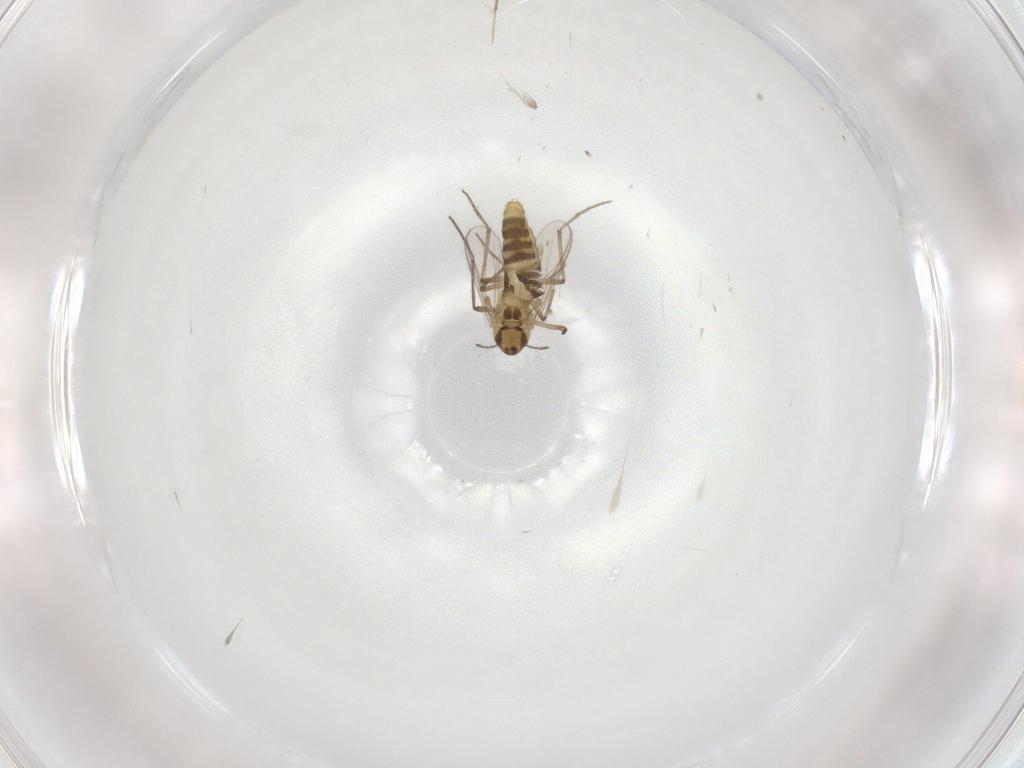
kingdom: Animalia
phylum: Arthropoda
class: Insecta
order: Diptera
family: Chironomidae
